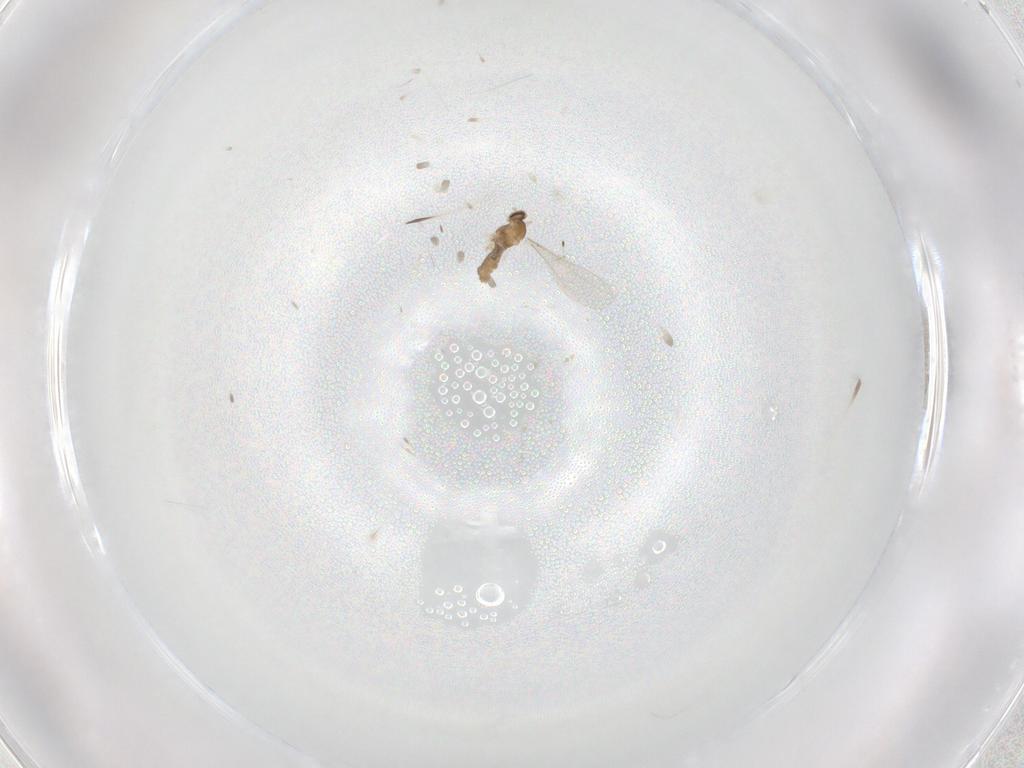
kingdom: Animalia
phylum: Arthropoda
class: Insecta
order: Diptera
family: Cecidomyiidae
